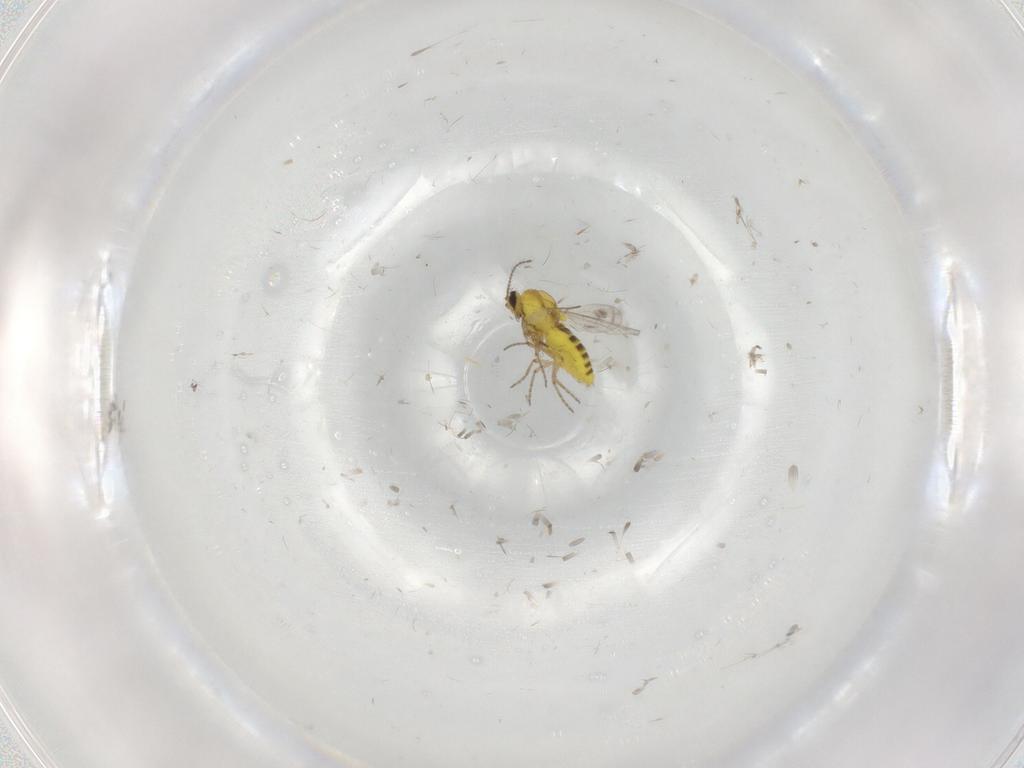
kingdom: Animalia
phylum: Arthropoda
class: Insecta
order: Diptera
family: Ceratopogonidae
